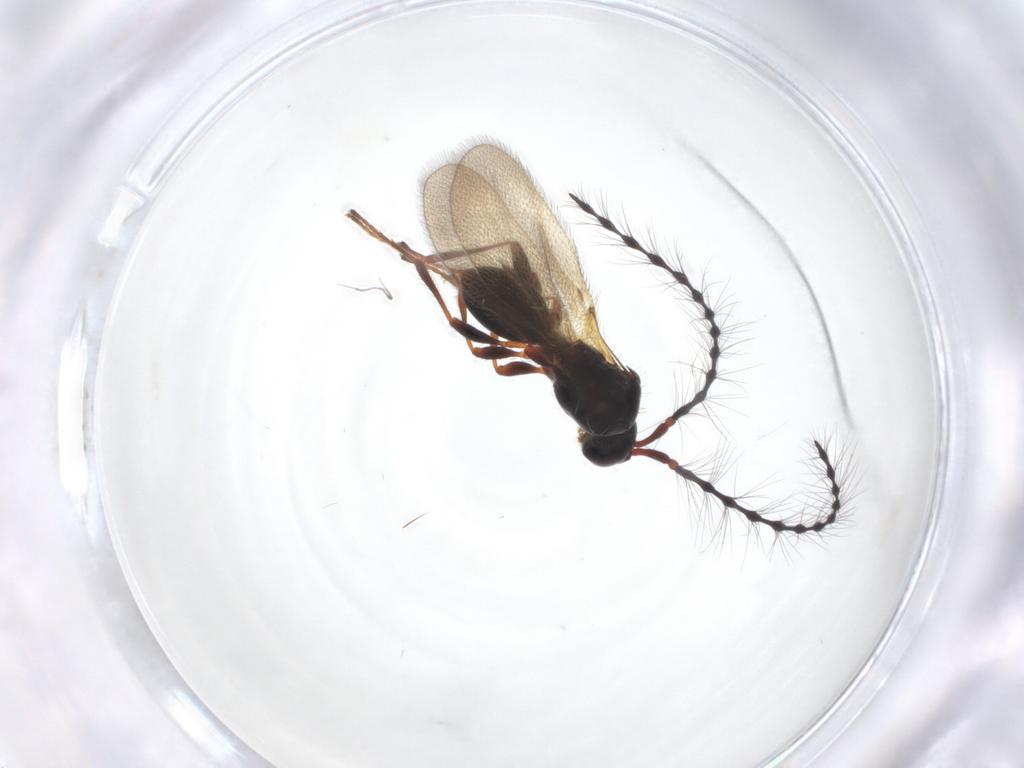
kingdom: Animalia
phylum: Arthropoda
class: Insecta
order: Hymenoptera
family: Diapriidae
